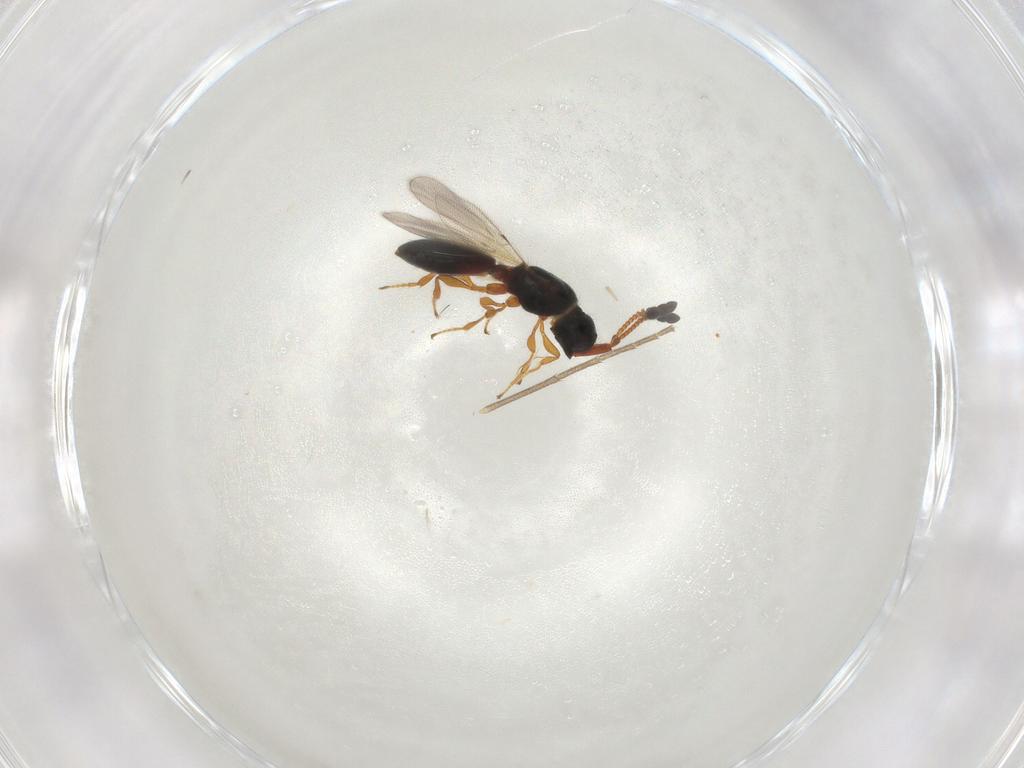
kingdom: Animalia
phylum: Arthropoda
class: Insecta
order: Hymenoptera
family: Diapriidae
